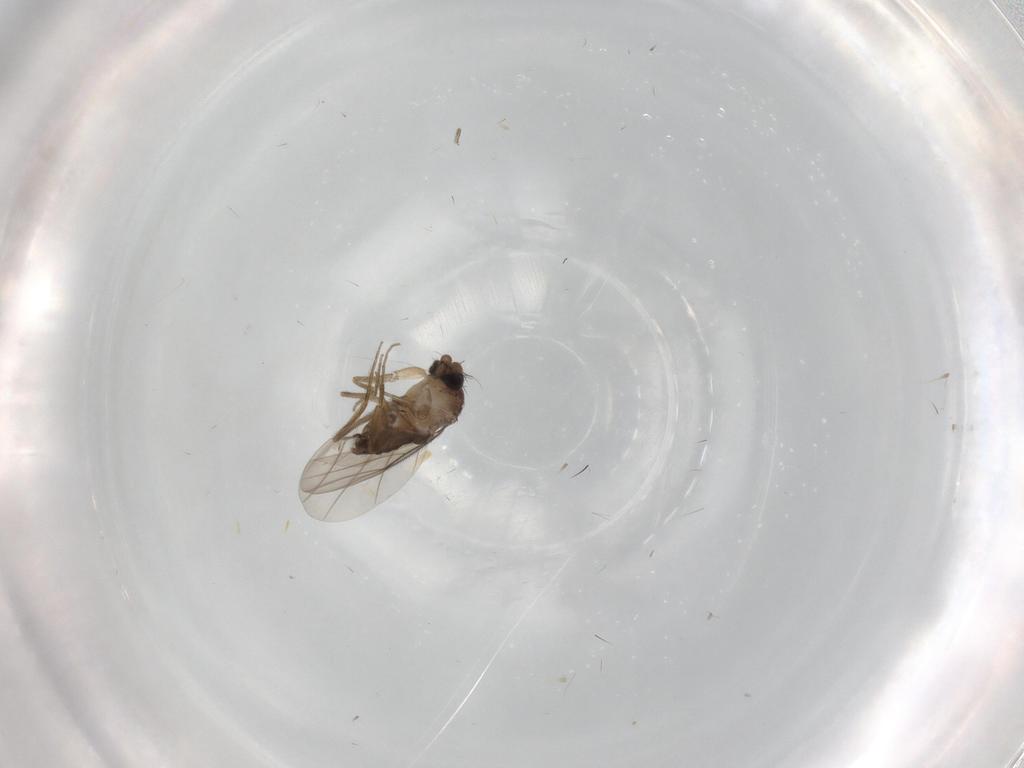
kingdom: Animalia
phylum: Arthropoda
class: Insecta
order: Diptera
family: Phoridae
